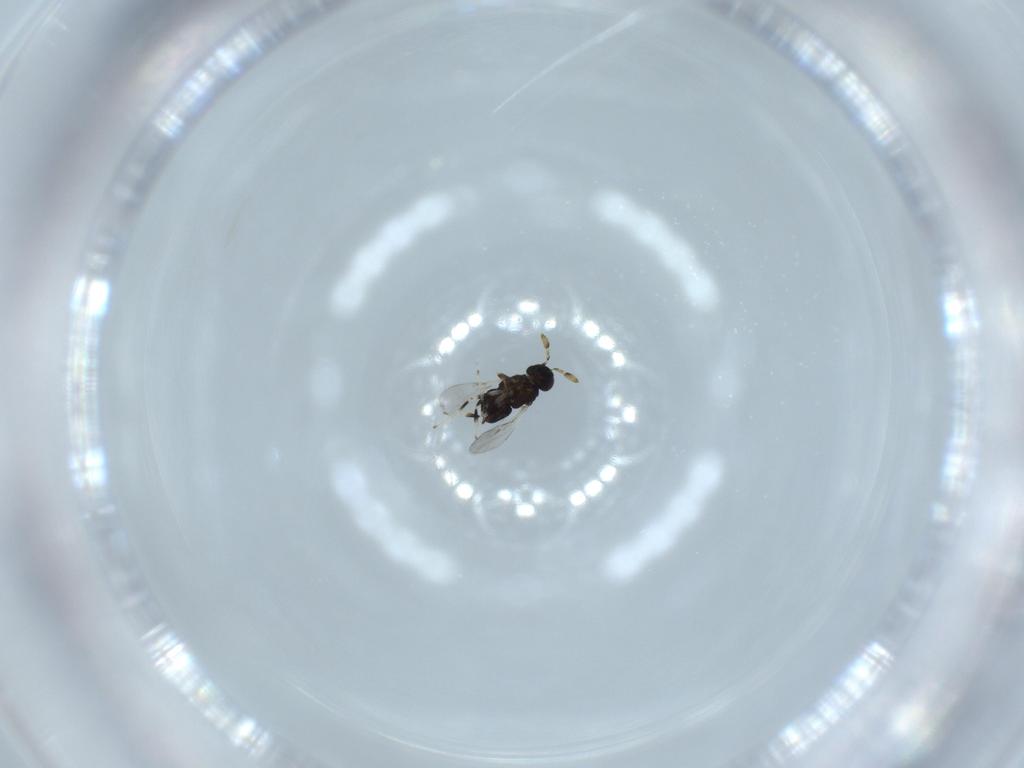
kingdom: Animalia
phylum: Arthropoda
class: Insecta
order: Hymenoptera
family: Encyrtidae
